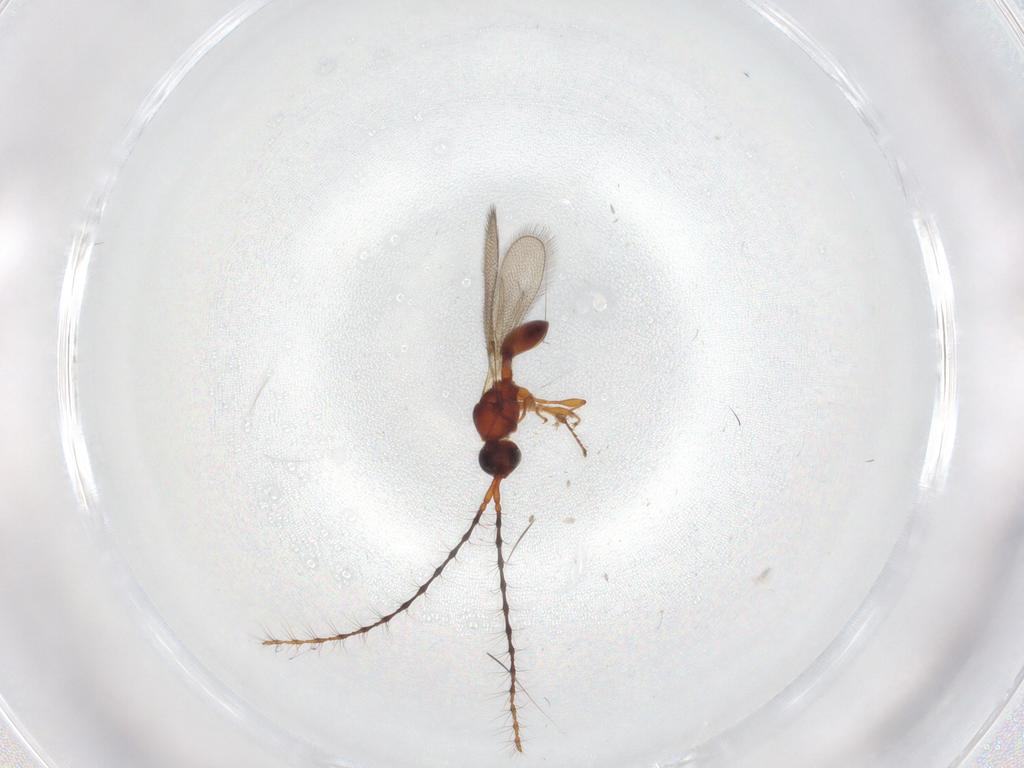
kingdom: Animalia
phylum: Arthropoda
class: Insecta
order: Hymenoptera
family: Diapriidae
